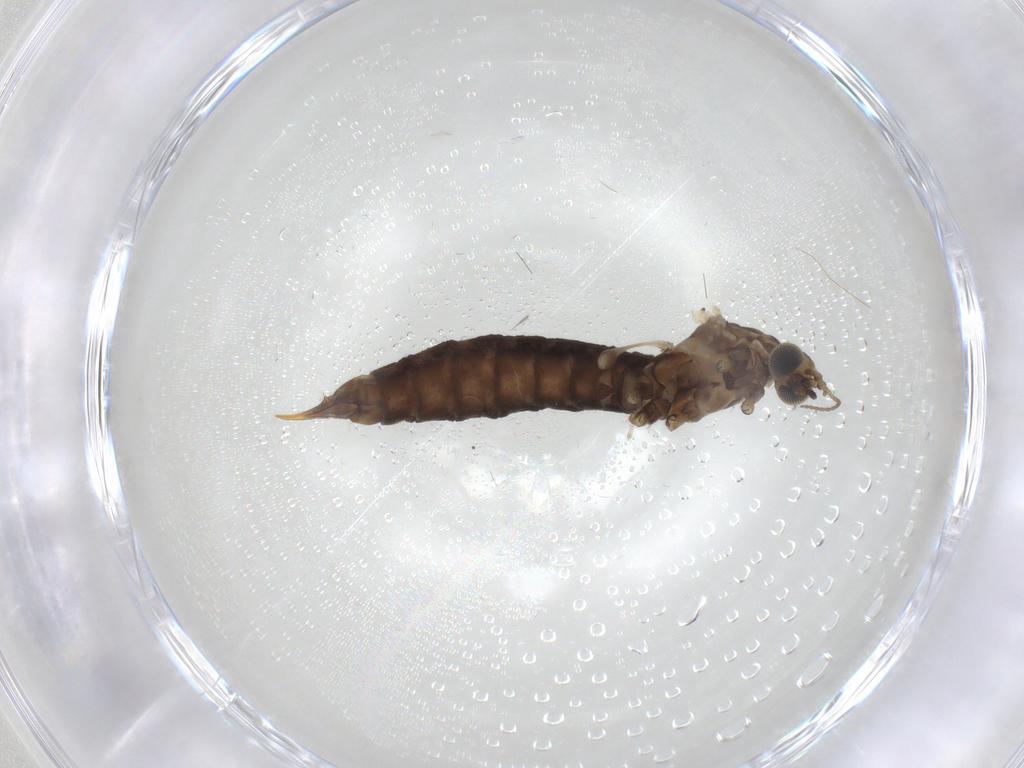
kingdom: Animalia
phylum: Arthropoda
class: Insecta
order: Diptera
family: Limoniidae
